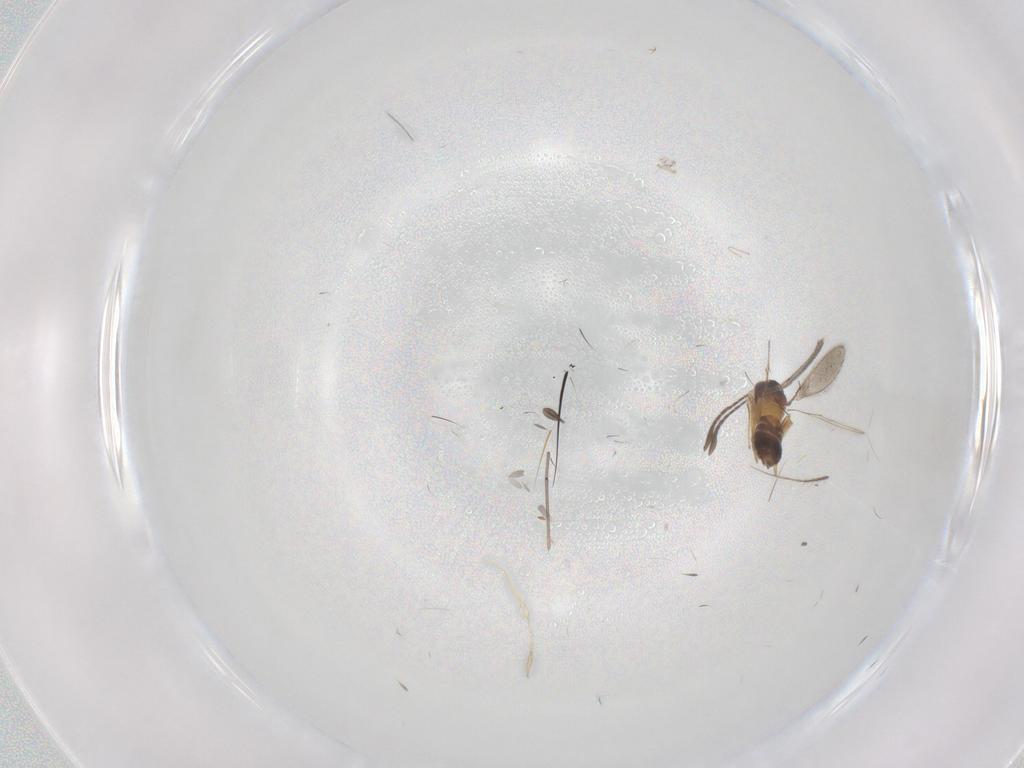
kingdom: Animalia
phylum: Arthropoda
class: Insecta
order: Hymenoptera
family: Mymaridae
